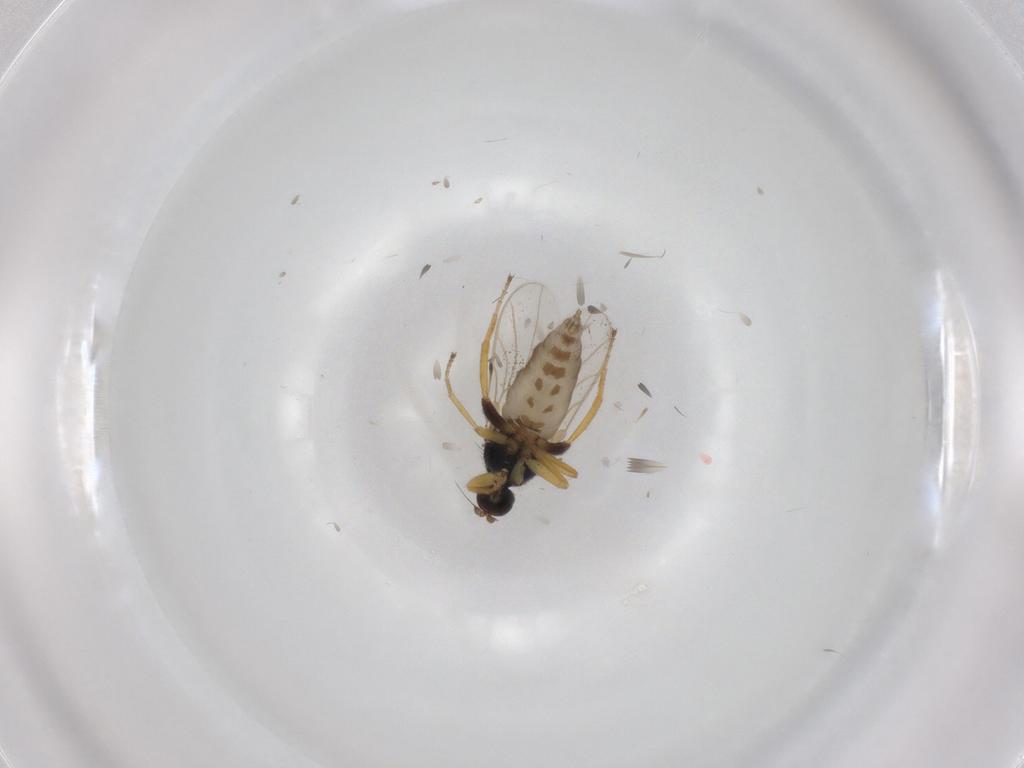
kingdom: Animalia
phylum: Arthropoda
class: Insecta
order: Diptera
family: Hybotidae
